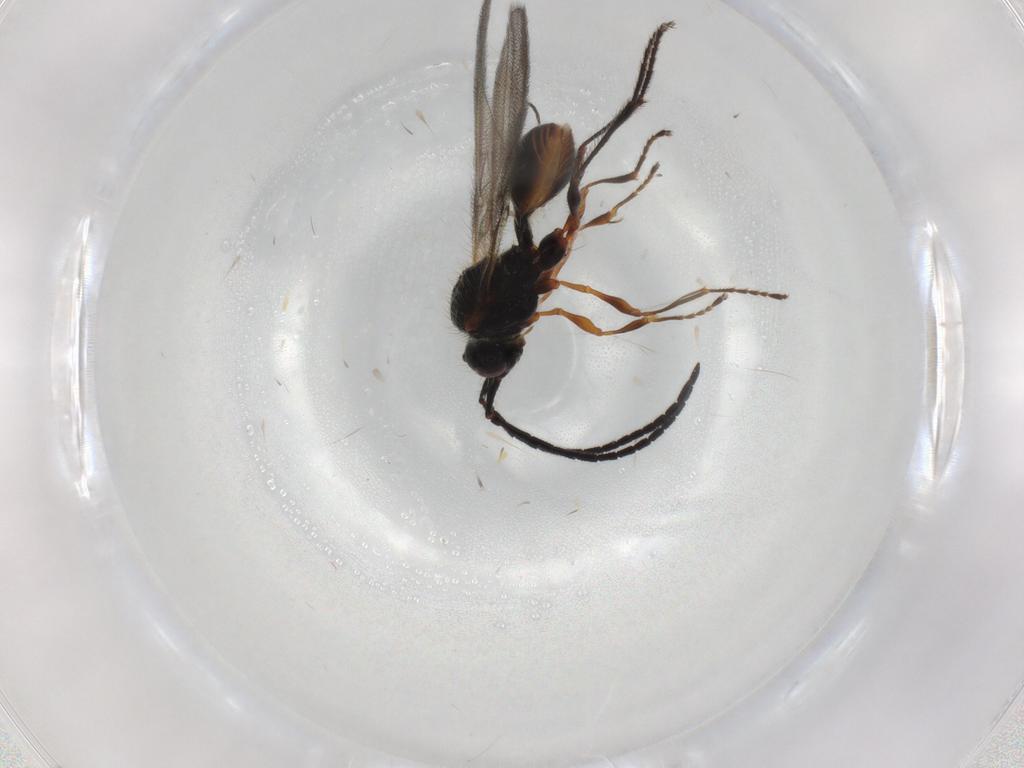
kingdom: Animalia
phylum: Arthropoda
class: Insecta
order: Hymenoptera
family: Diapriidae
